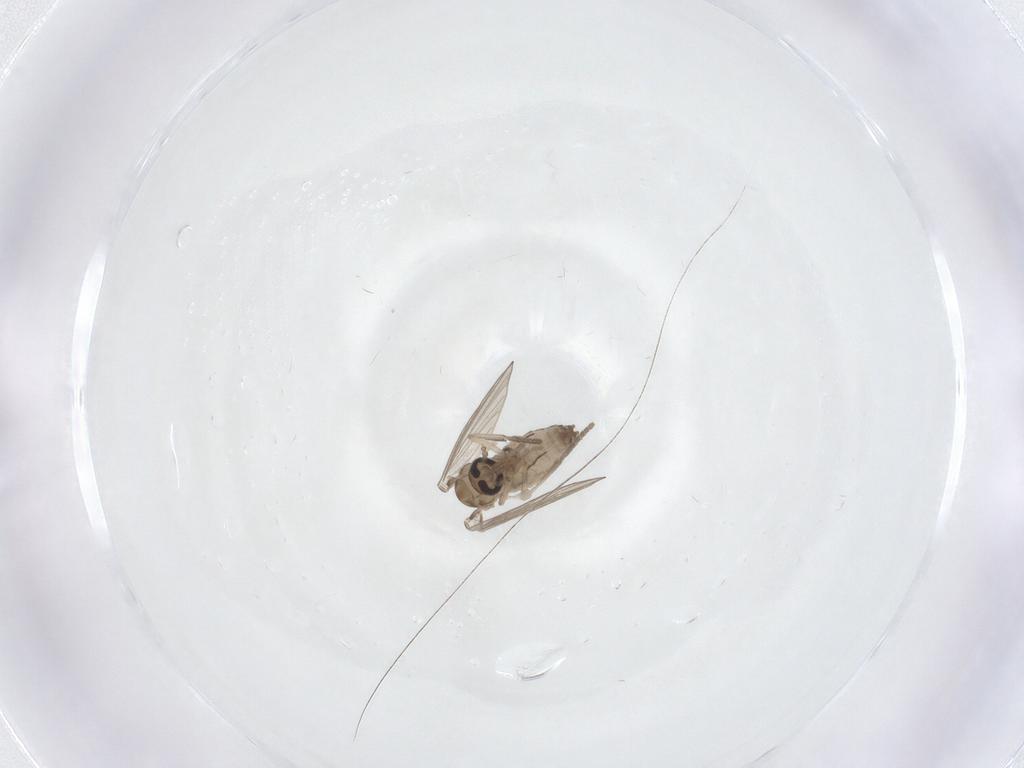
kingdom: Animalia
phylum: Arthropoda
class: Insecta
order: Diptera
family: Psychodidae
